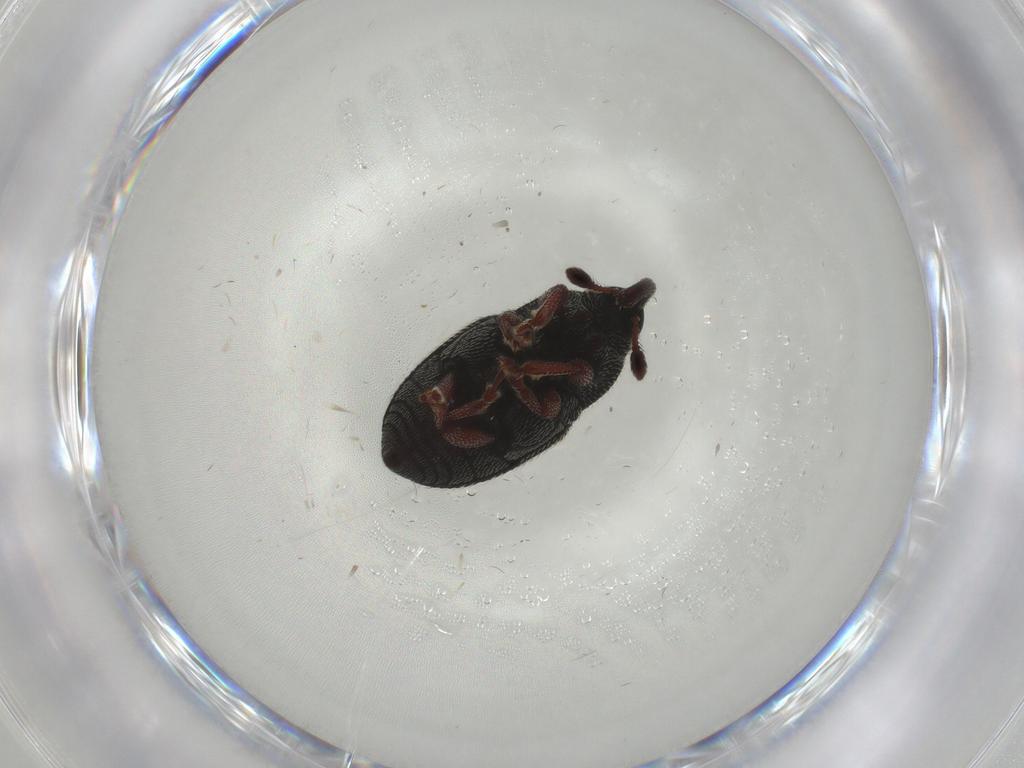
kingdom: Animalia
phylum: Arthropoda
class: Insecta
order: Coleoptera
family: Curculionidae
